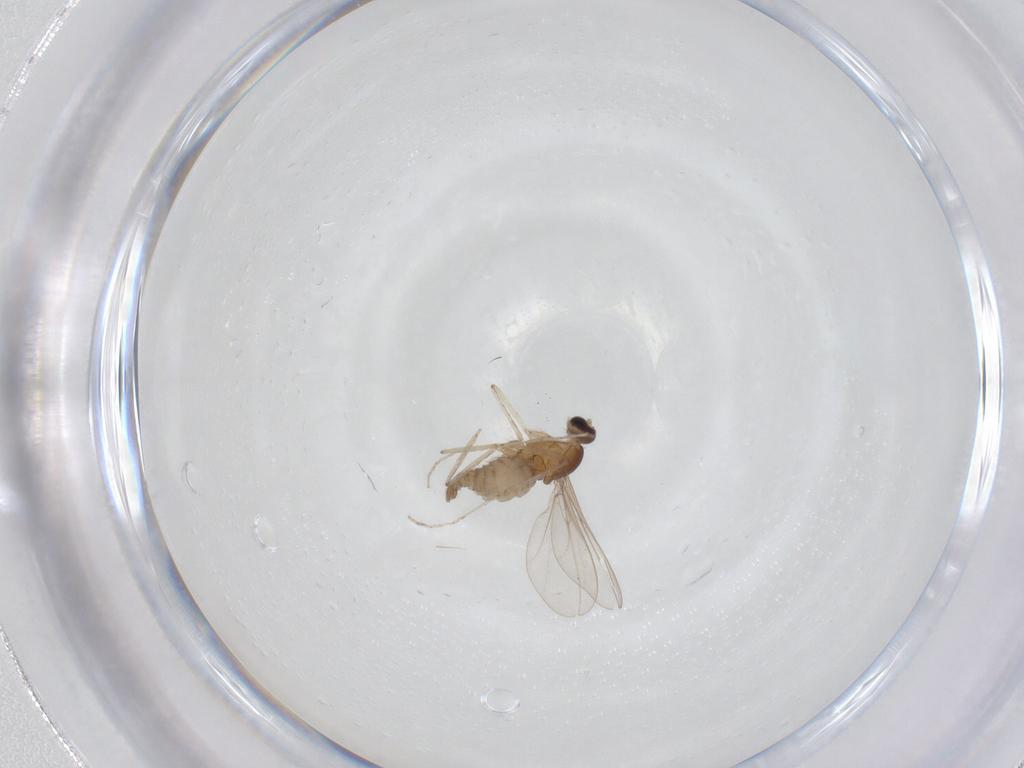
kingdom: Animalia
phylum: Arthropoda
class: Insecta
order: Diptera
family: Cecidomyiidae
